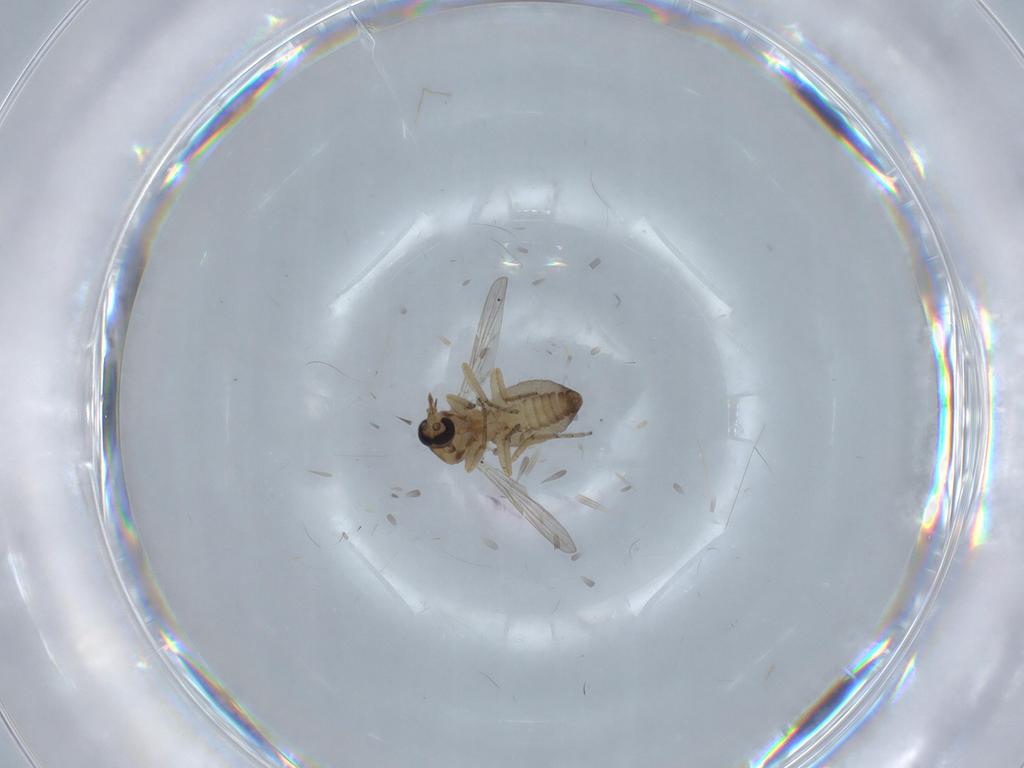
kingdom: Animalia
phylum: Arthropoda
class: Insecta
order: Diptera
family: Ceratopogonidae
